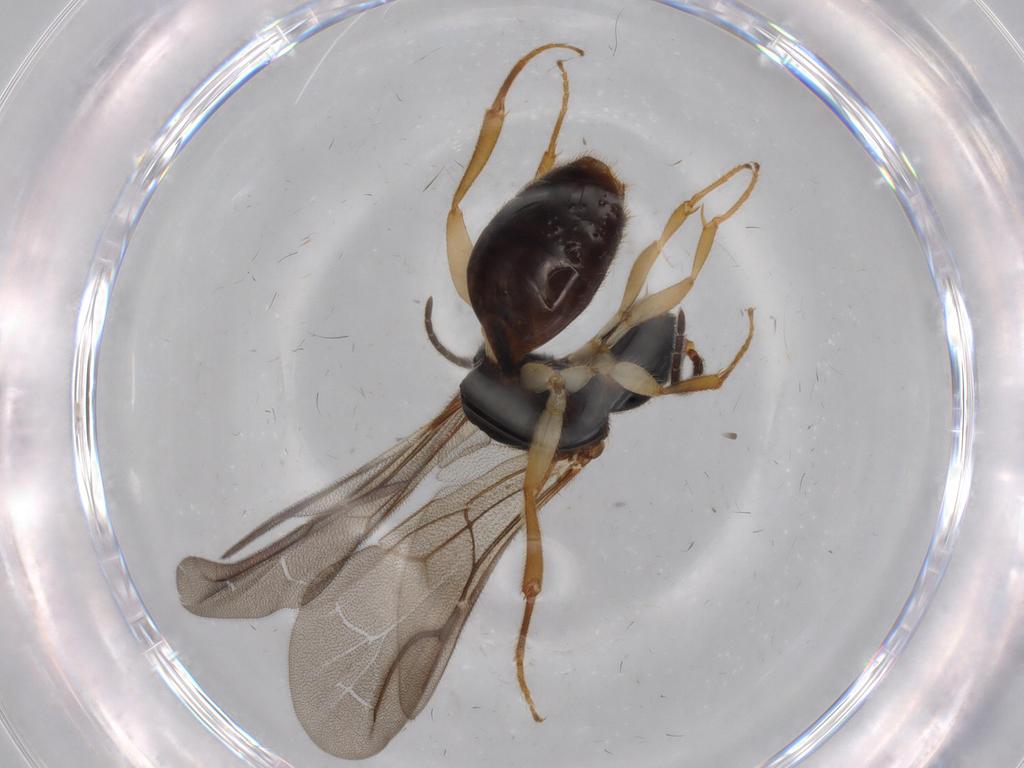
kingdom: Animalia
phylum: Arthropoda
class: Insecta
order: Hymenoptera
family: Bethylidae
